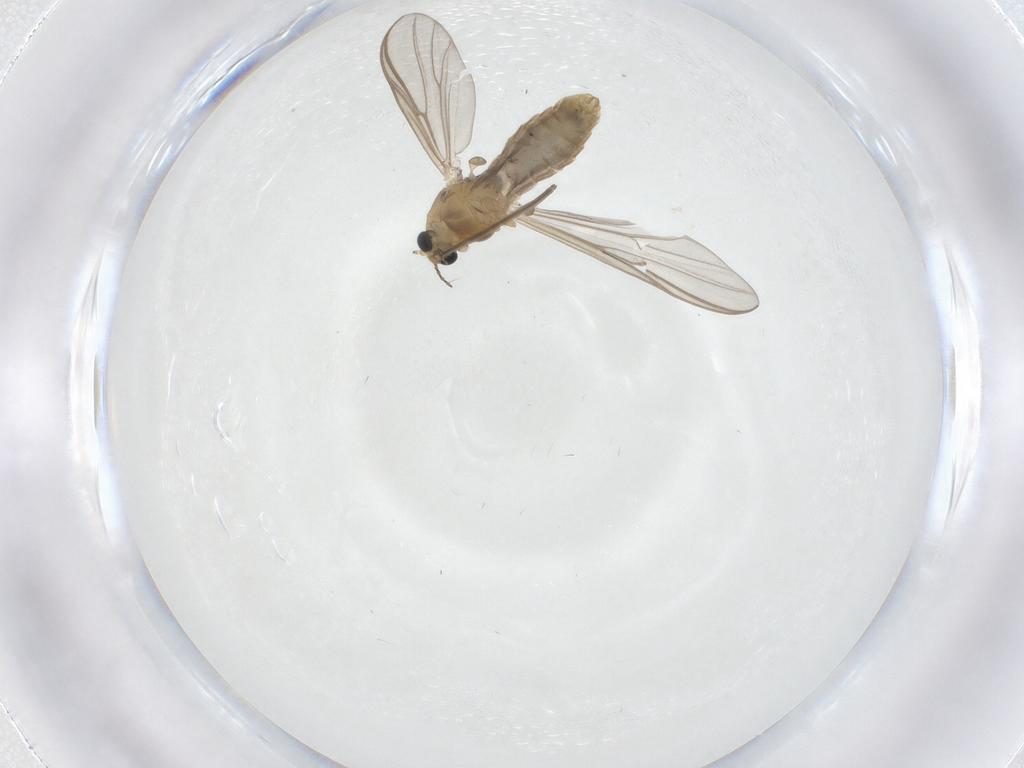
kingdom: Animalia
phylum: Arthropoda
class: Insecta
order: Diptera
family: Chironomidae
